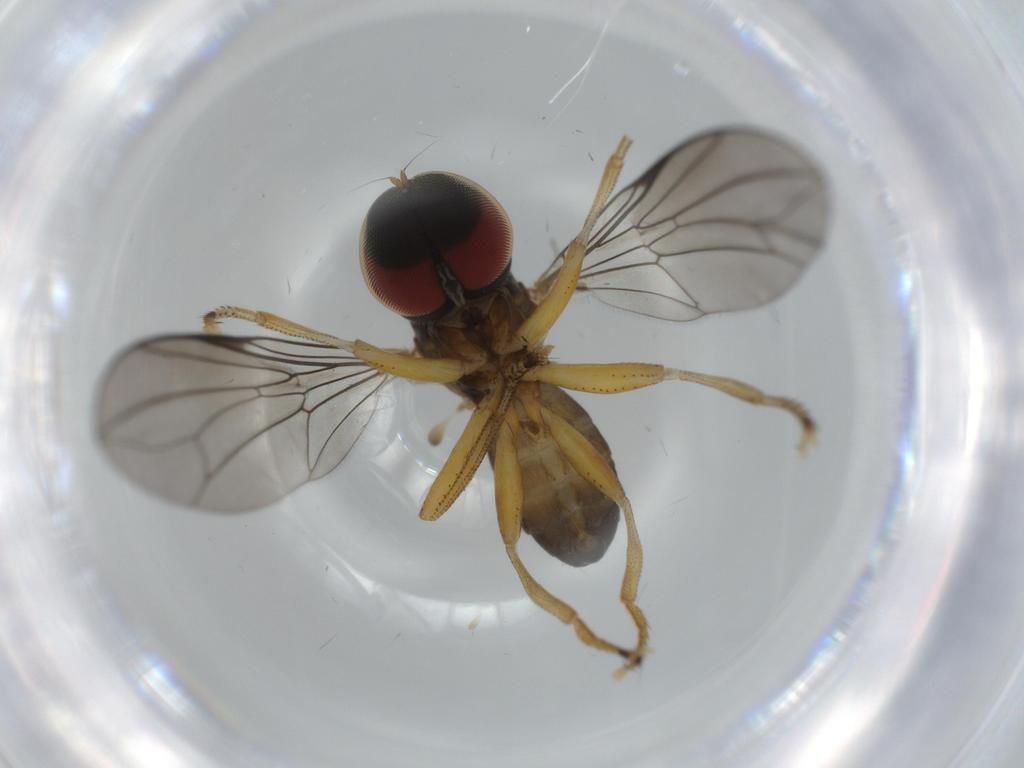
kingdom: Animalia
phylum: Arthropoda
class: Insecta
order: Diptera
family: Pipunculidae
